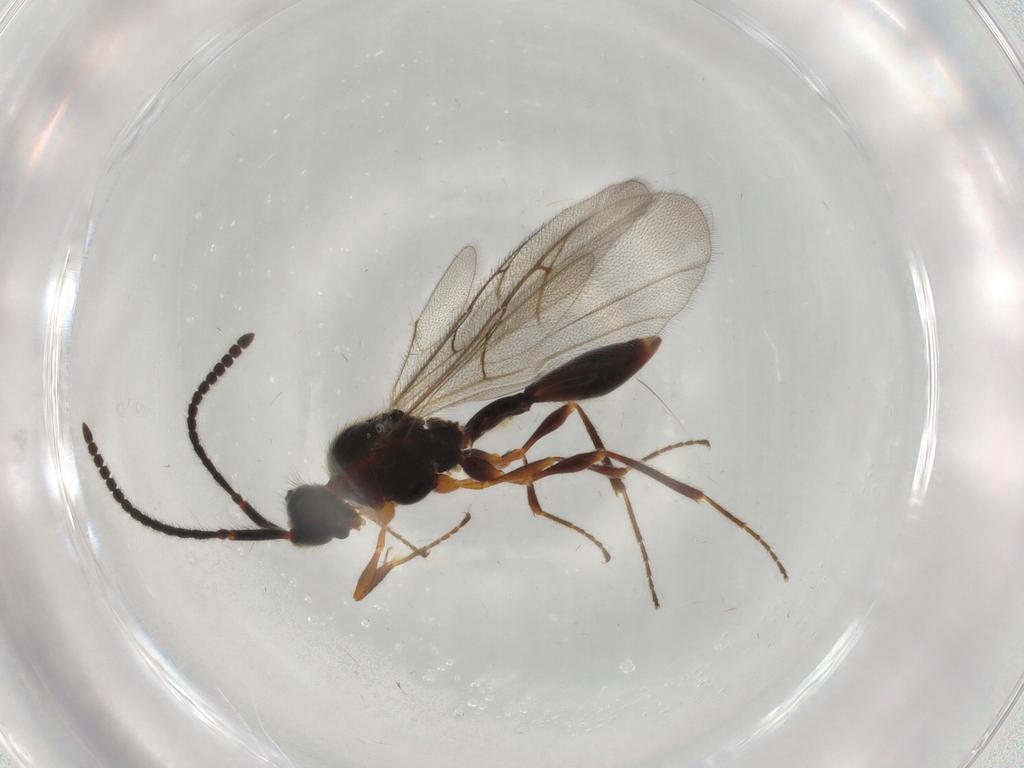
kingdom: Animalia
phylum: Arthropoda
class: Insecta
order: Hymenoptera
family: Diapriidae
